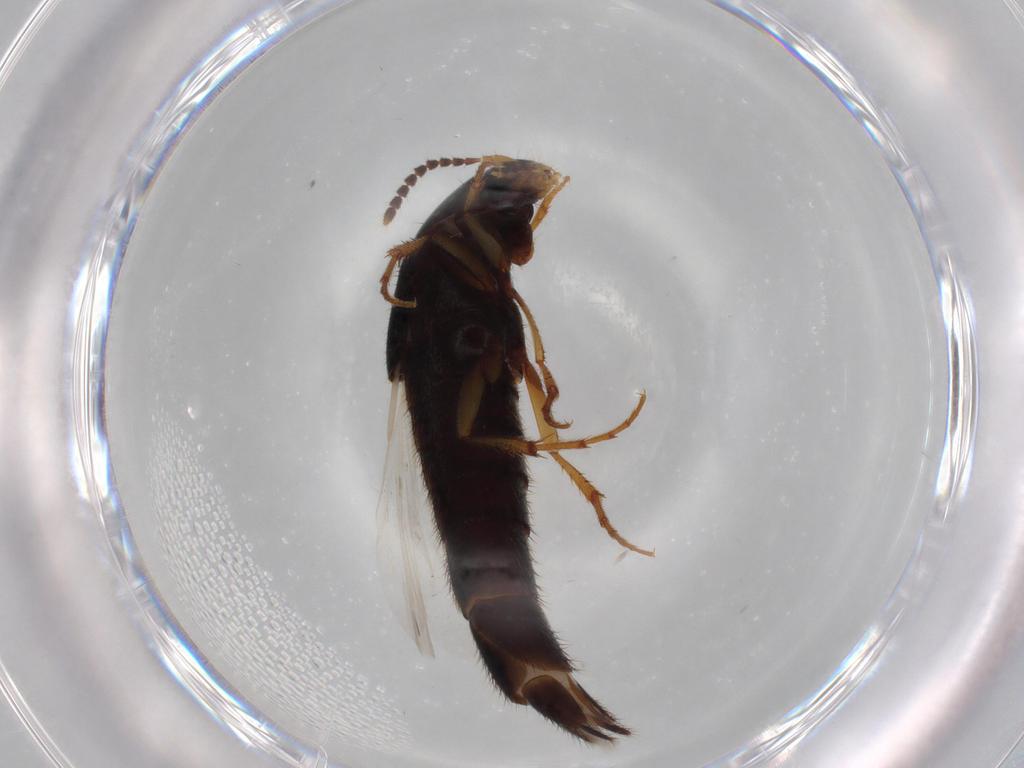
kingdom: Animalia
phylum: Arthropoda
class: Insecta
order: Coleoptera
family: Staphylinidae
